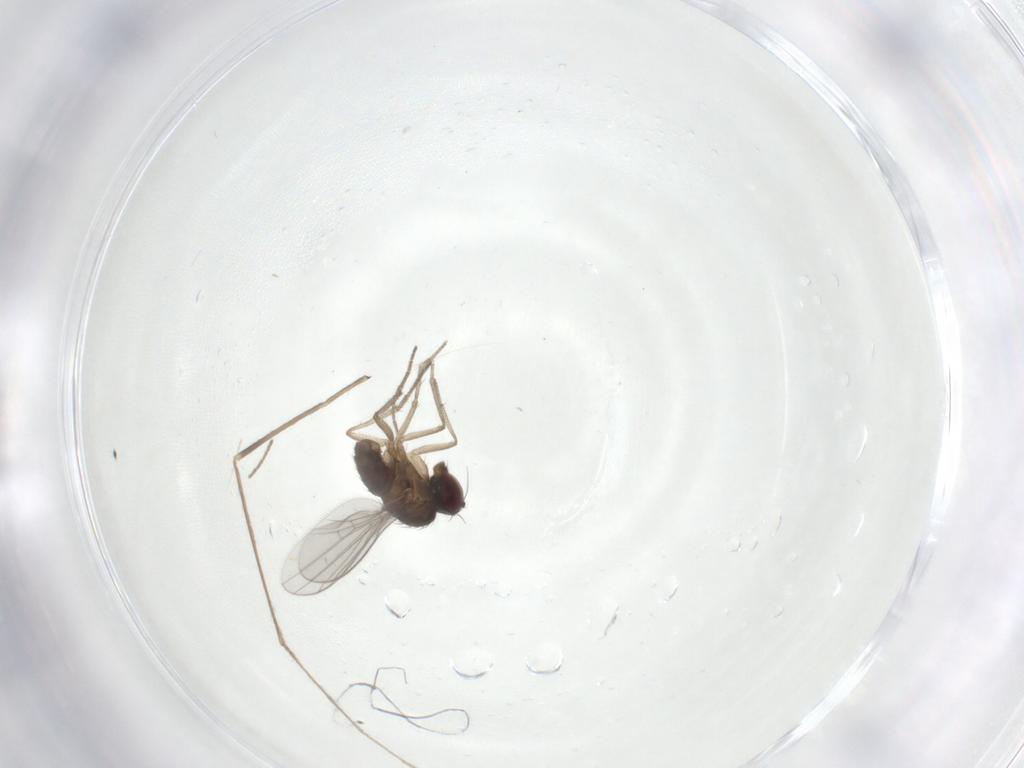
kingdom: Animalia
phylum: Arthropoda
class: Insecta
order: Diptera
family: Dolichopodidae
